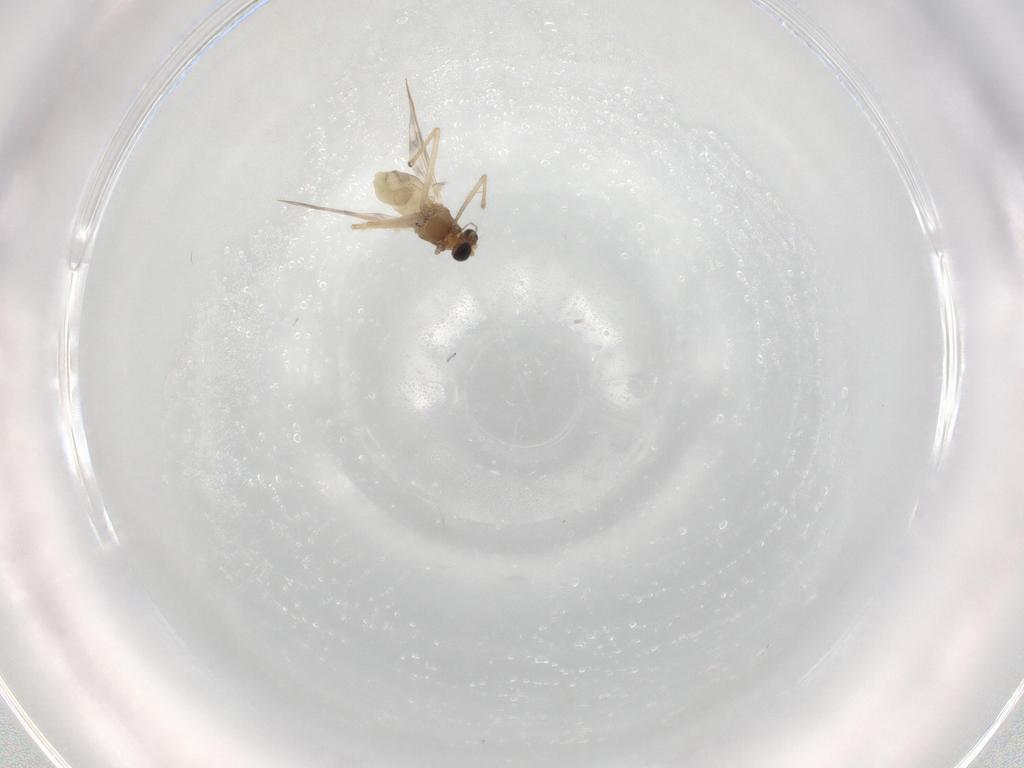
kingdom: Animalia
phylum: Arthropoda
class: Insecta
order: Diptera
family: Chironomidae
